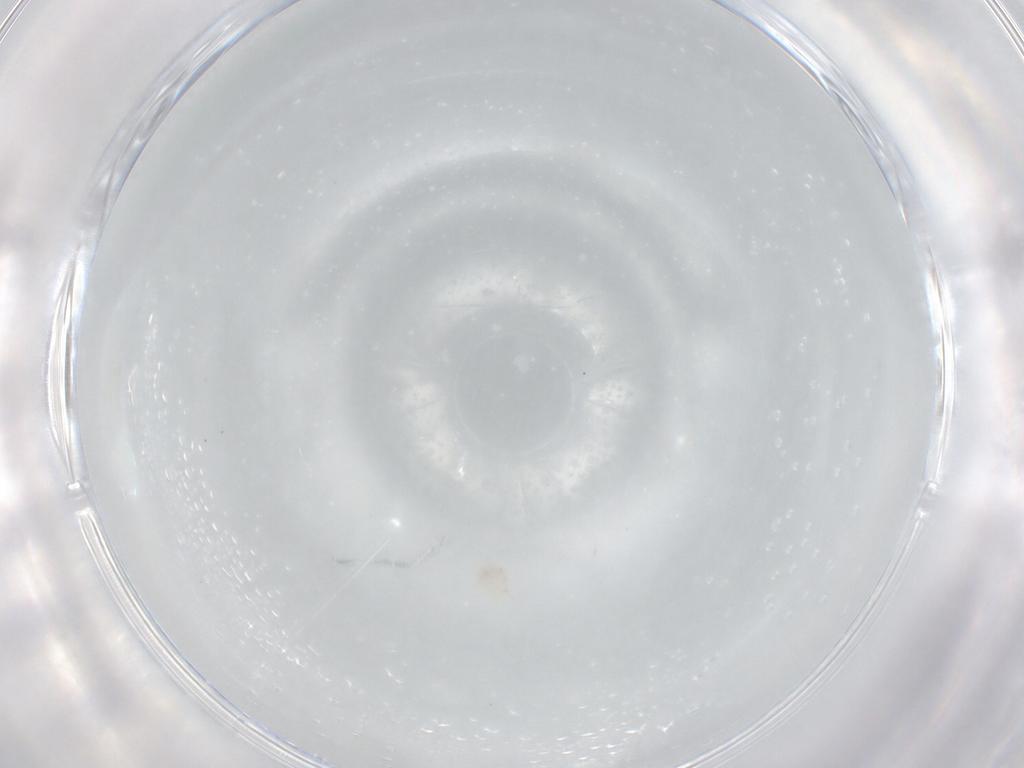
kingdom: Animalia
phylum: Arthropoda
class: Arachnida
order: Mesostigmata
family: Melicharidae
